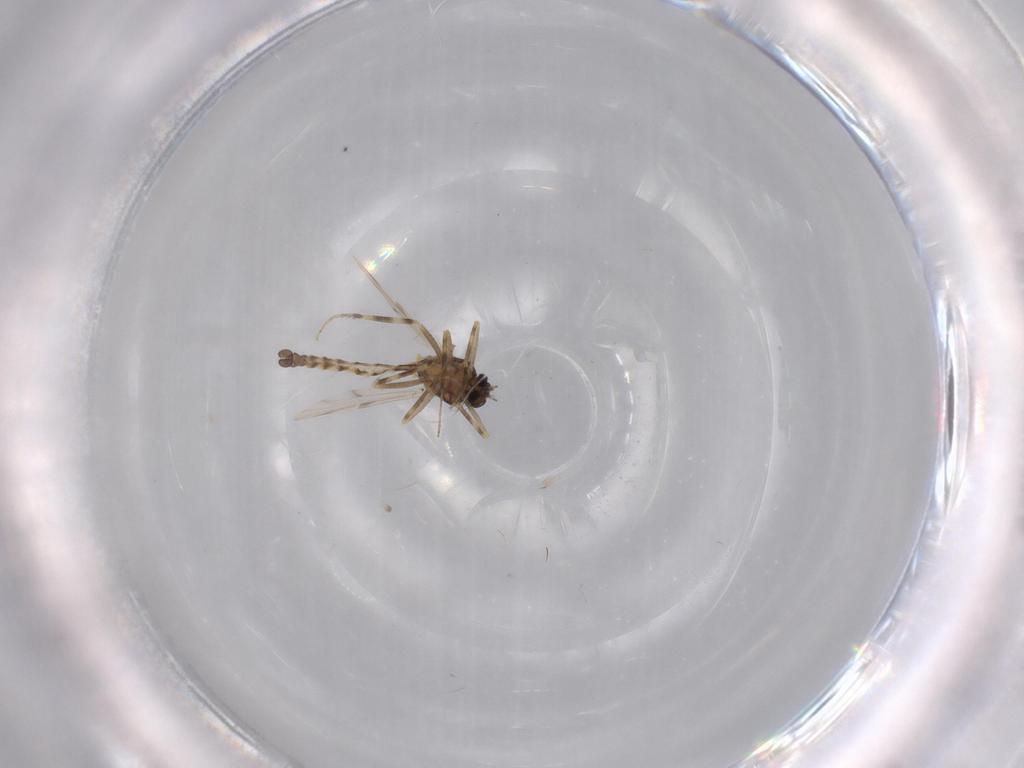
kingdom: Animalia
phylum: Arthropoda
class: Insecta
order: Diptera
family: Ceratopogonidae
